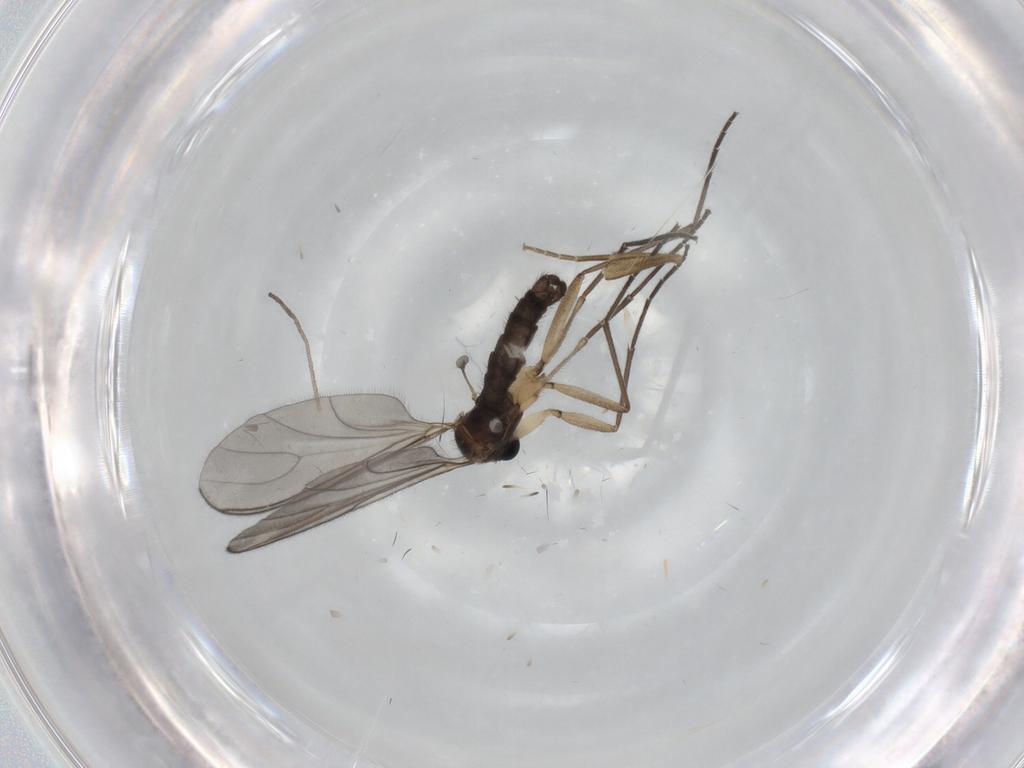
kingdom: Animalia
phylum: Arthropoda
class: Insecta
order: Diptera
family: Sciaridae
